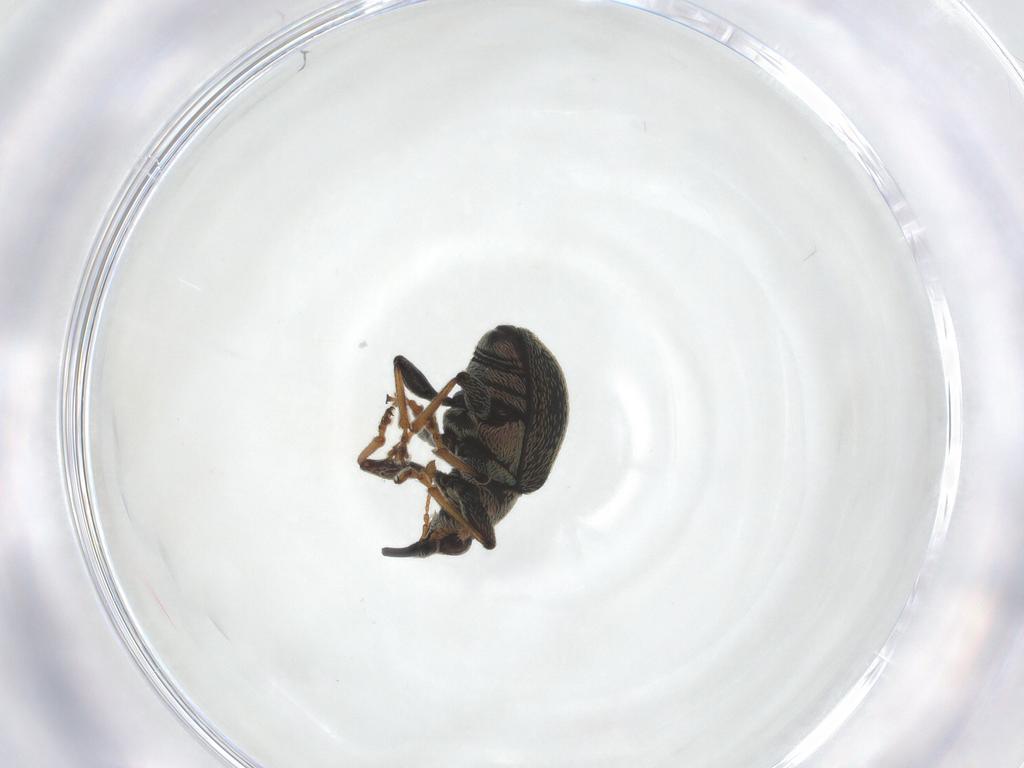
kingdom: Animalia
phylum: Arthropoda
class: Insecta
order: Coleoptera
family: Brentidae
